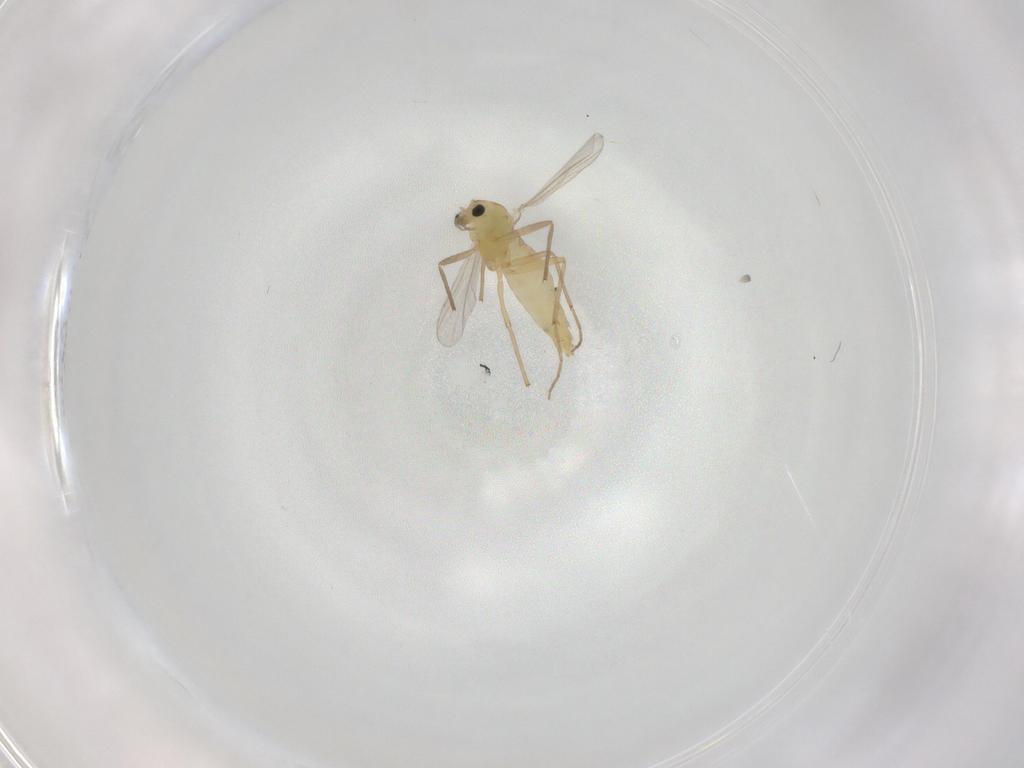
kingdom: Animalia
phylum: Arthropoda
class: Insecta
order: Diptera
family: Chironomidae
